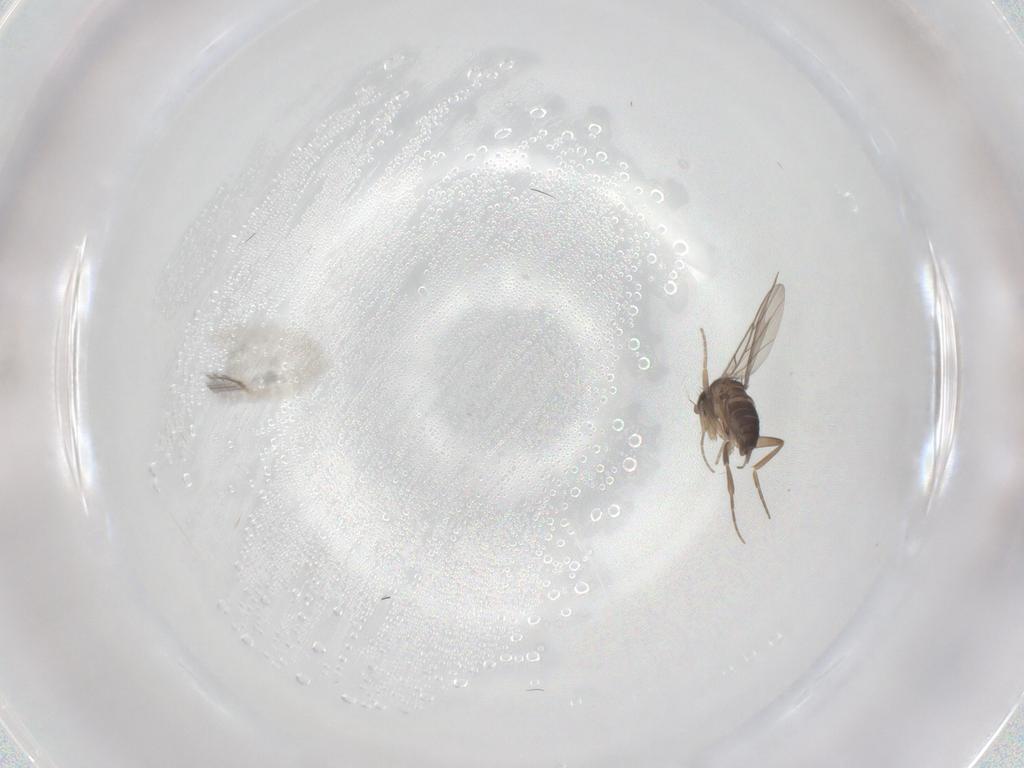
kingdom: Animalia
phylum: Arthropoda
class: Insecta
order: Diptera
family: Phoridae
